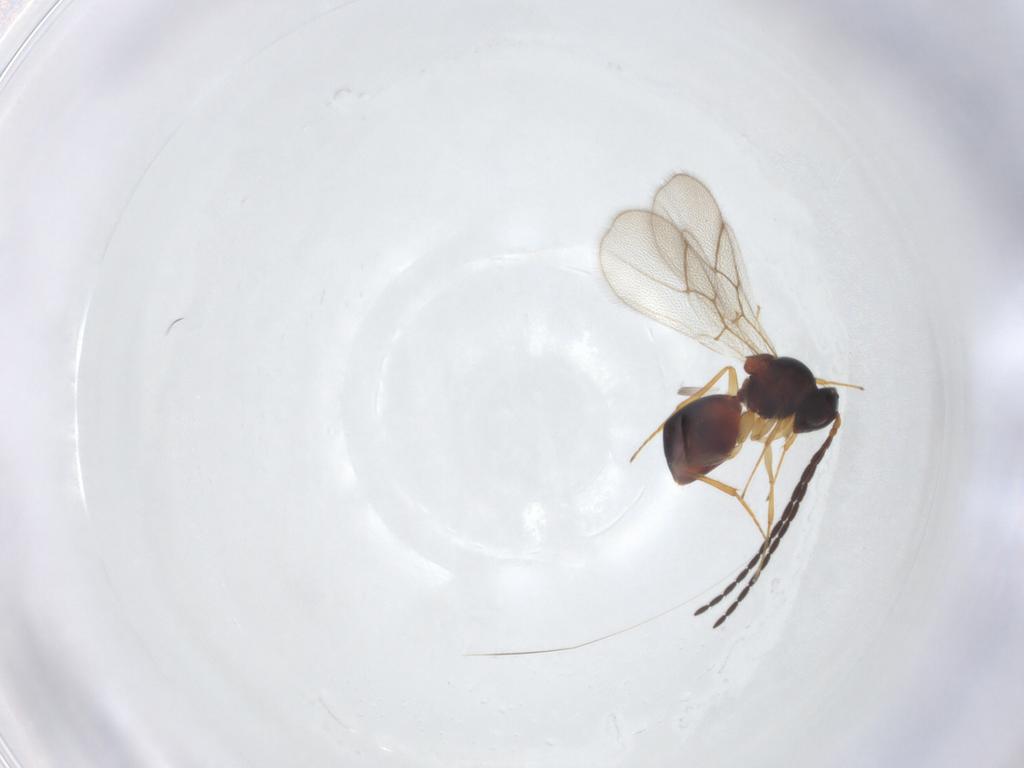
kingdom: Animalia
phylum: Arthropoda
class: Insecta
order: Hymenoptera
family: Figitidae
